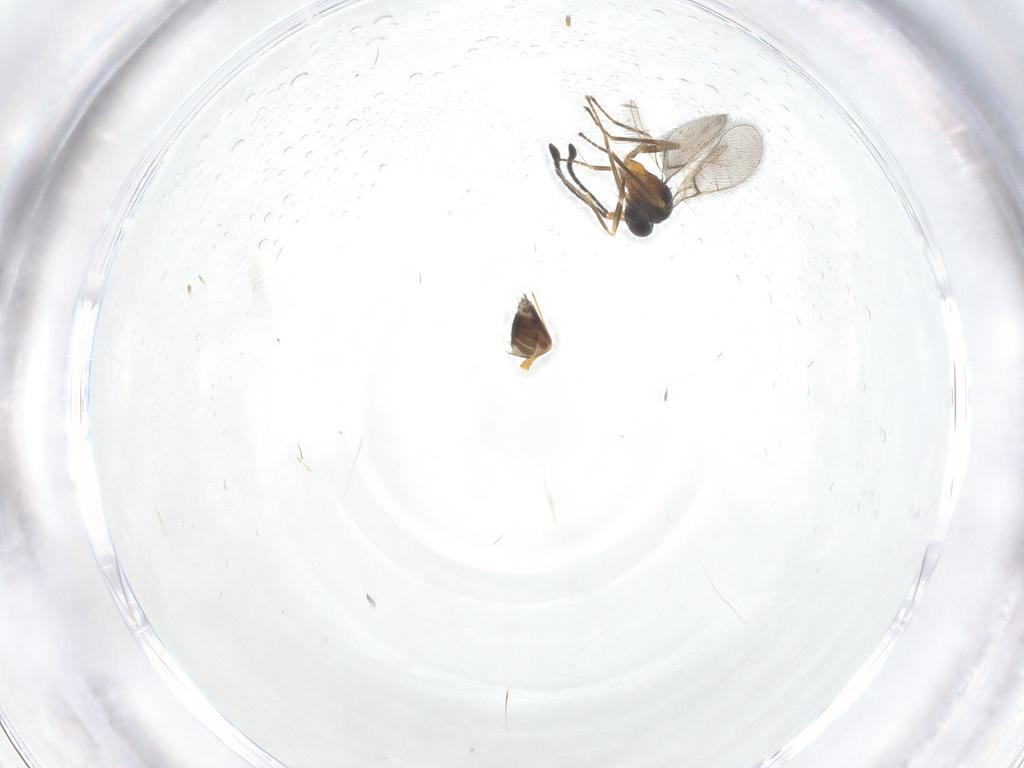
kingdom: Animalia
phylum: Arthropoda
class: Insecta
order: Hymenoptera
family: Mymaridae
